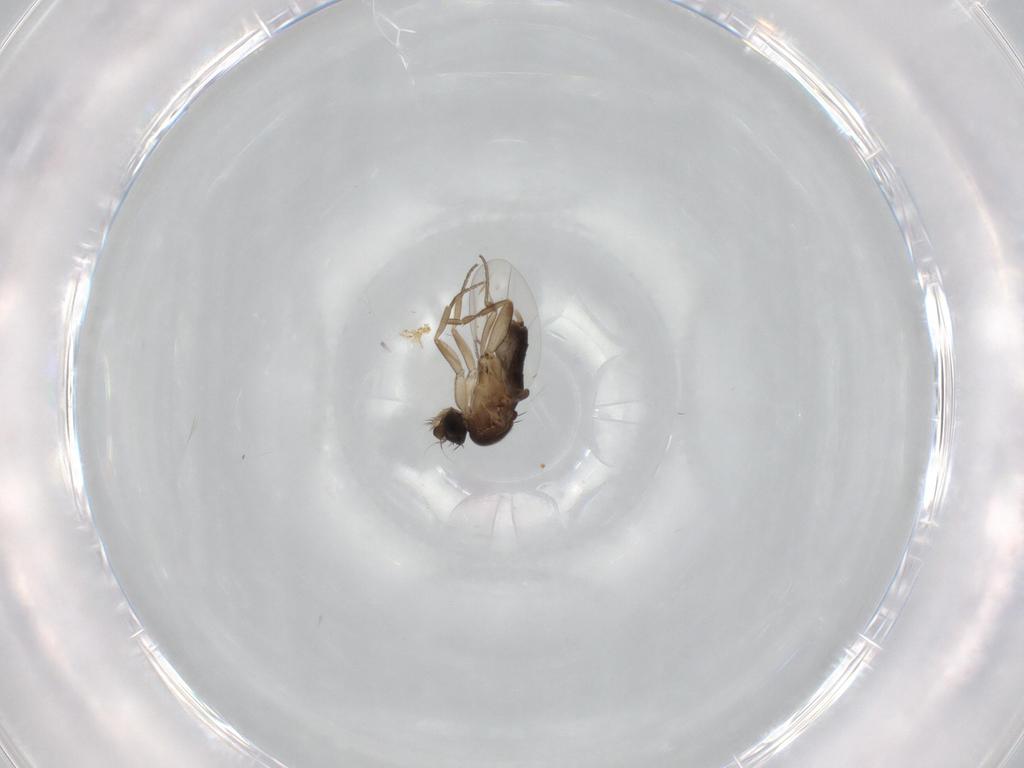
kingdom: Animalia
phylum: Arthropoda
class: Insecta
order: Diptera
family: Phoridae
